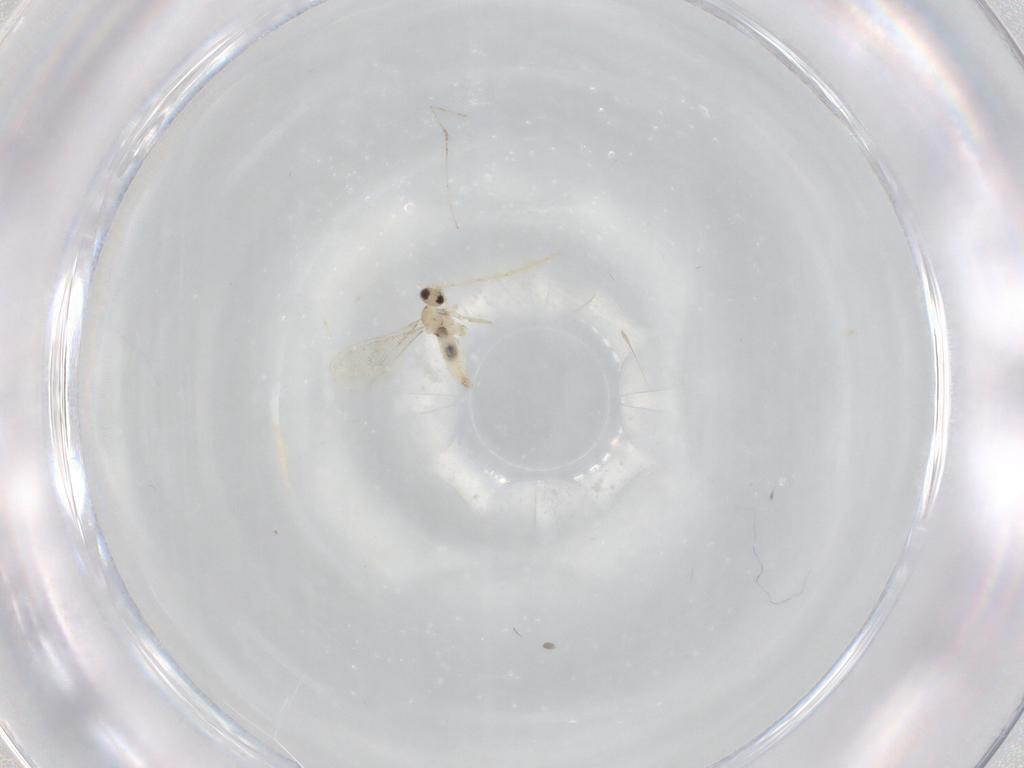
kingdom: Animalia
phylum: Arthropoda
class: Insecta
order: Diptera
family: Cecidomyiidae
